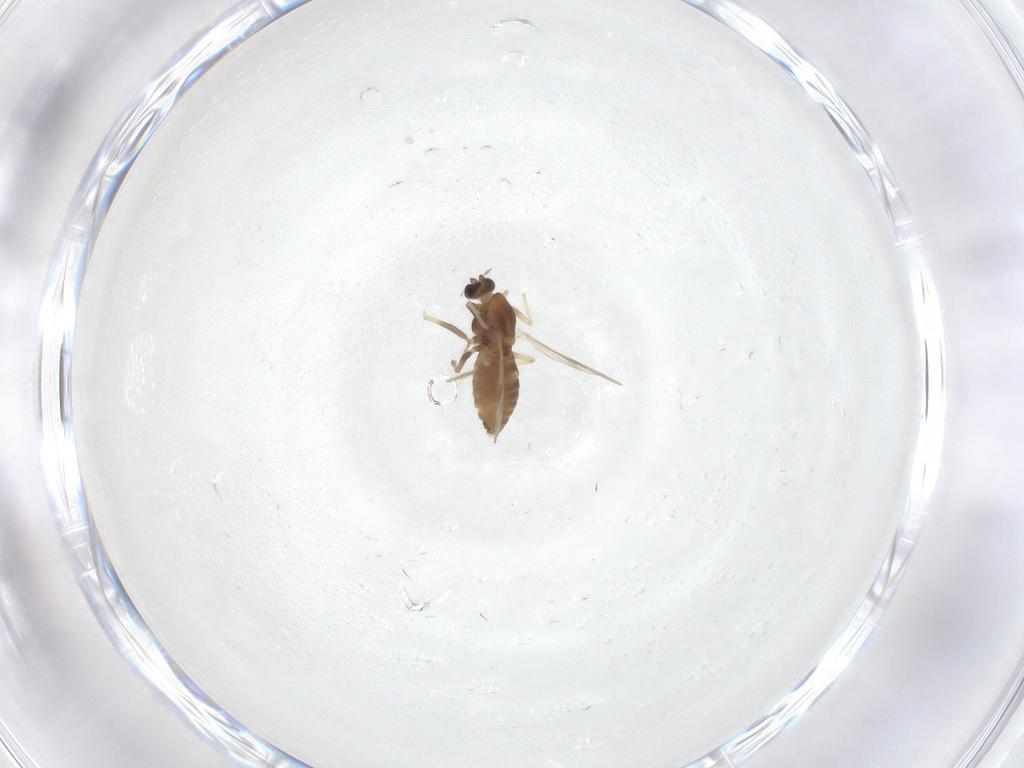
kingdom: Animalia
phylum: Arthropoda
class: Insecta
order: Diptera
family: Chironomidae
